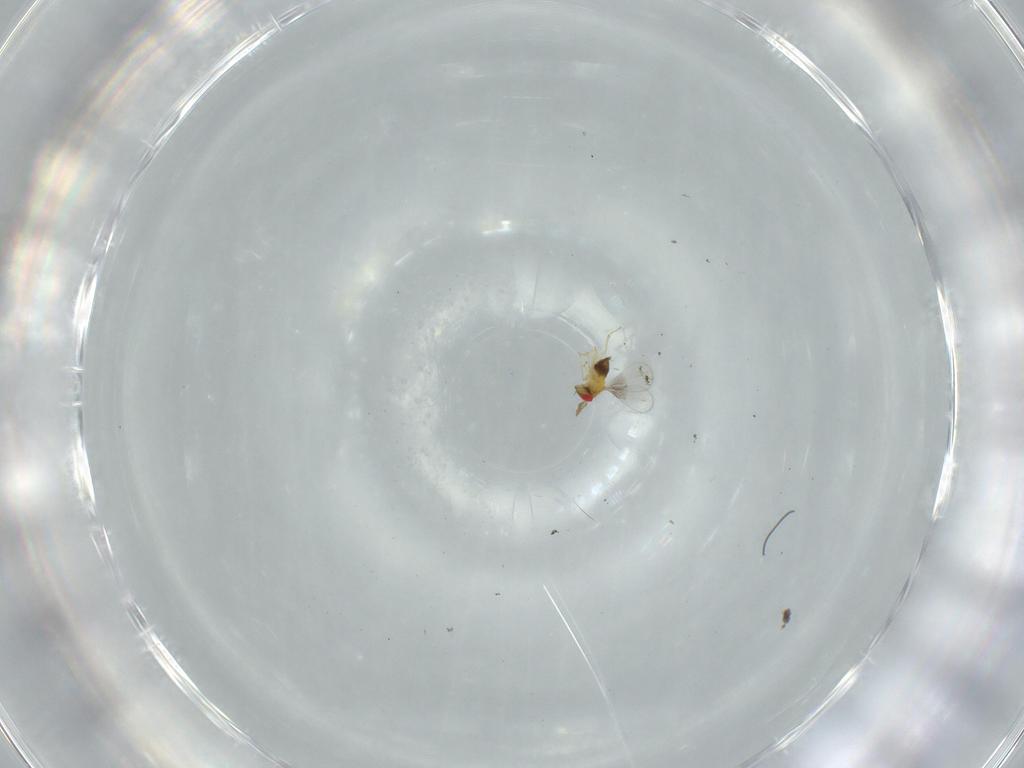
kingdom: Animalia
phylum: Arthropoda
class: Insecta
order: Hymenoptera
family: Trichogrammatidae
